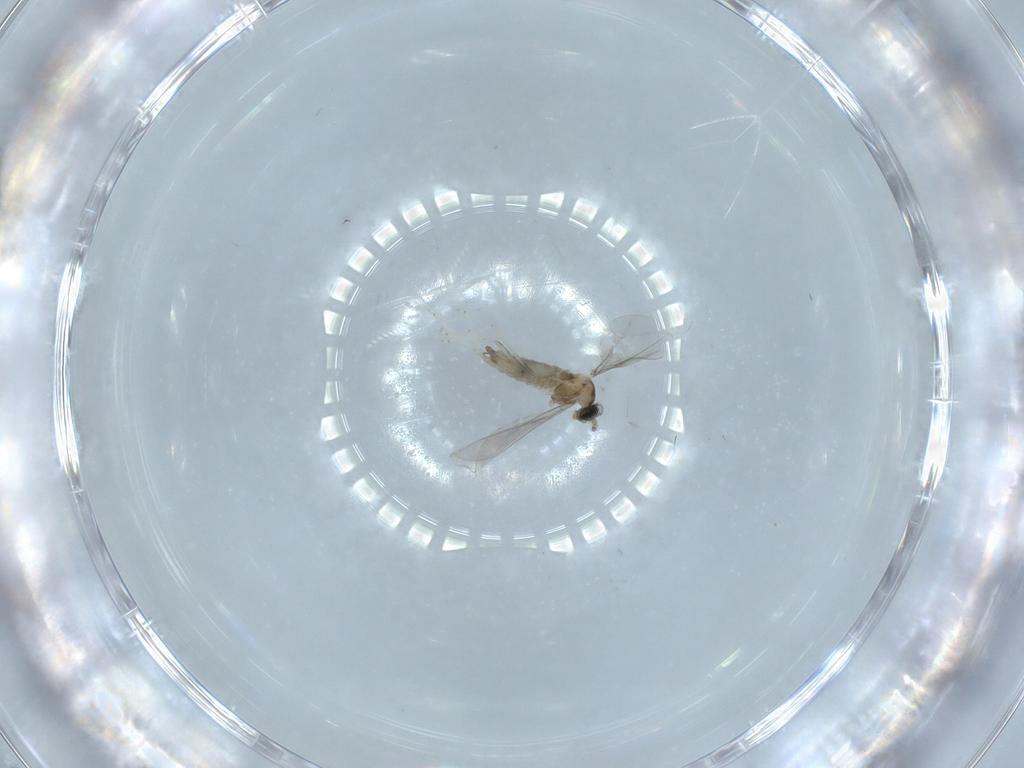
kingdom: Animalia
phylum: Arthropoda
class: Insecta
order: Diptera
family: Cecidomyiidae
